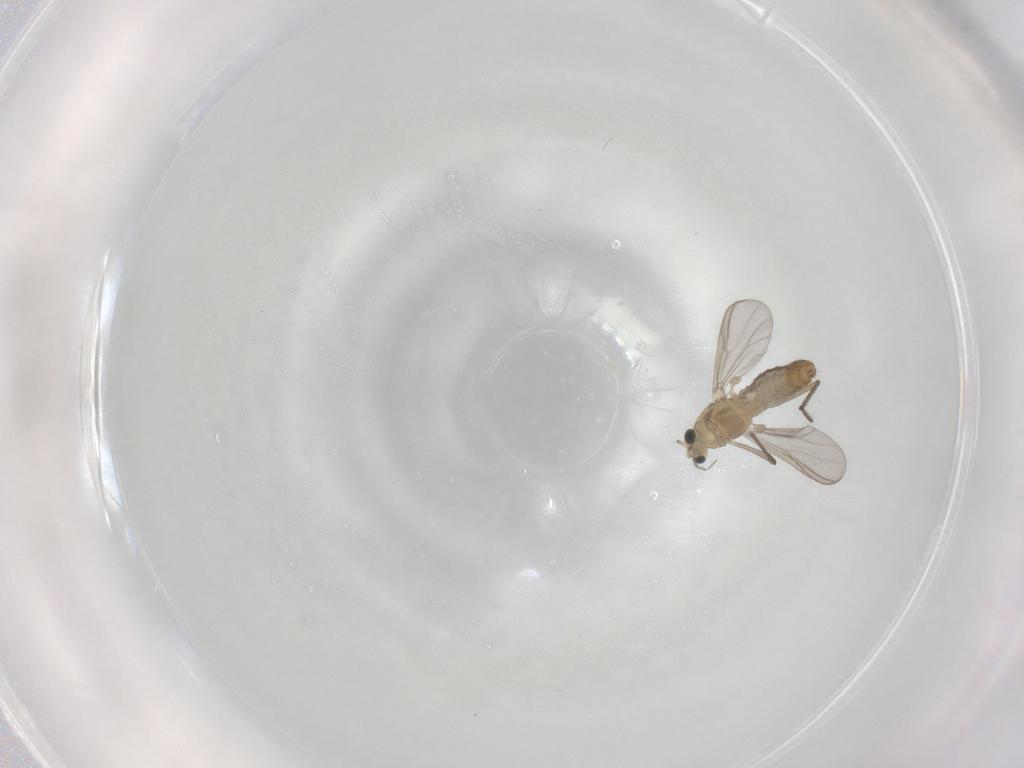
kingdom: Animalia
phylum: Arthropoda
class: Insecta
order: Diptera
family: Chironomidae
